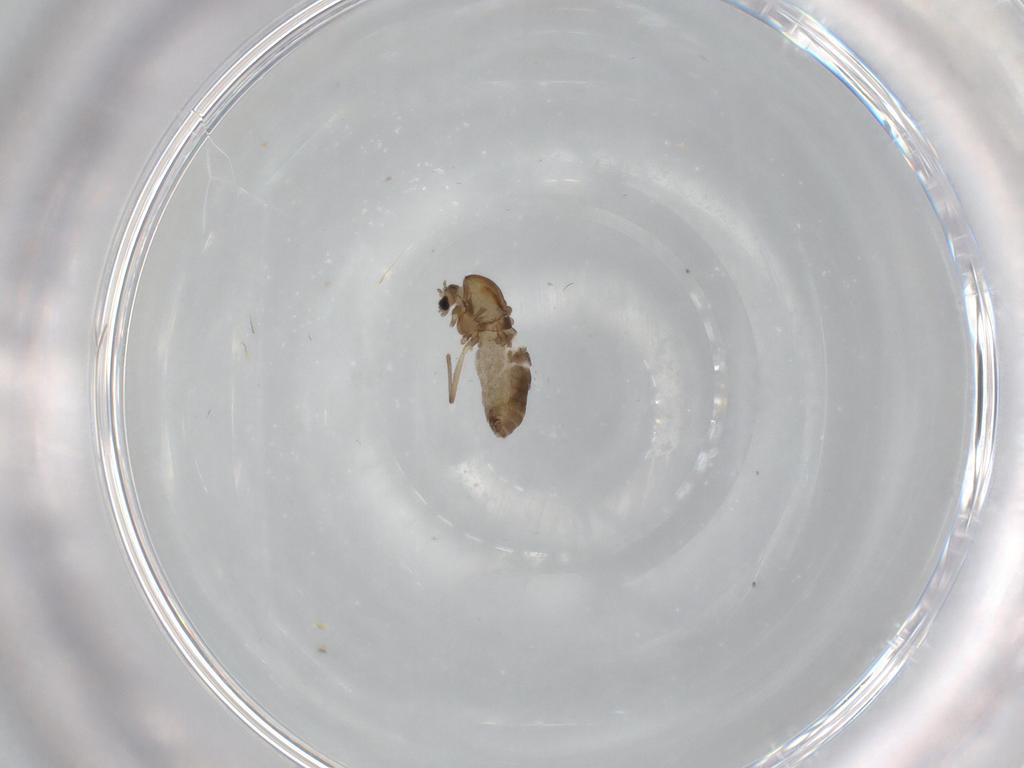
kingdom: Animalia
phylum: Arthropoda
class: Insecta
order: Diptera
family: Chironomidae
